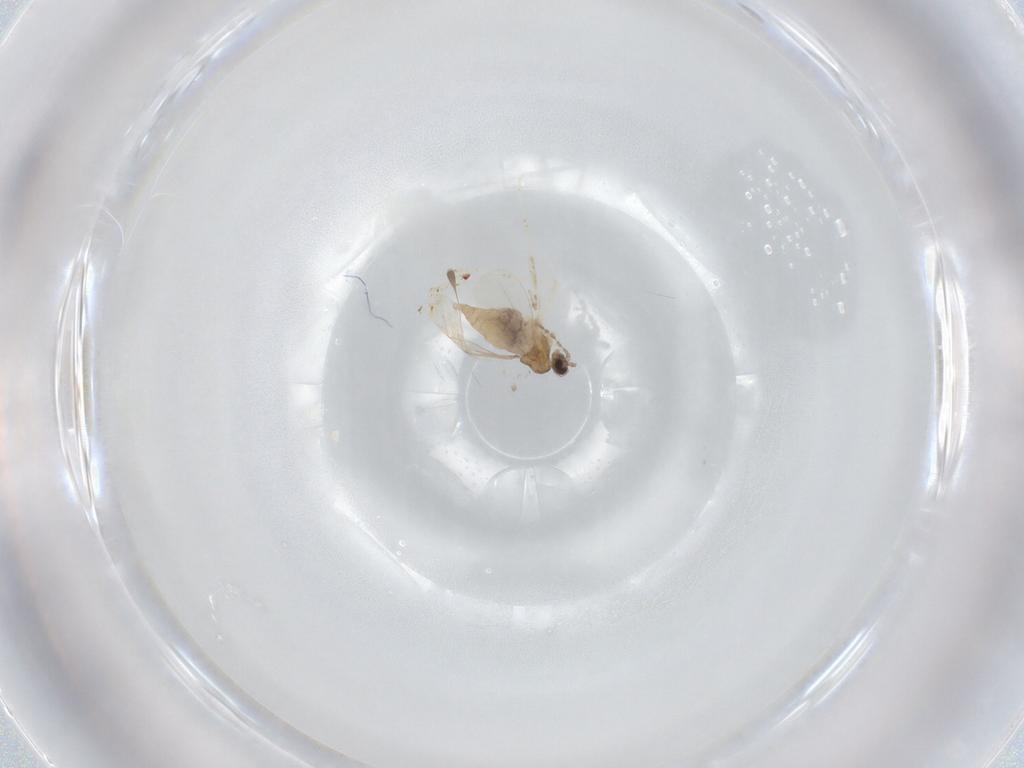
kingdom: Animalia
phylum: Arthropoda
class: Insecta
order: Diptera
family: Cecidomyiidae
